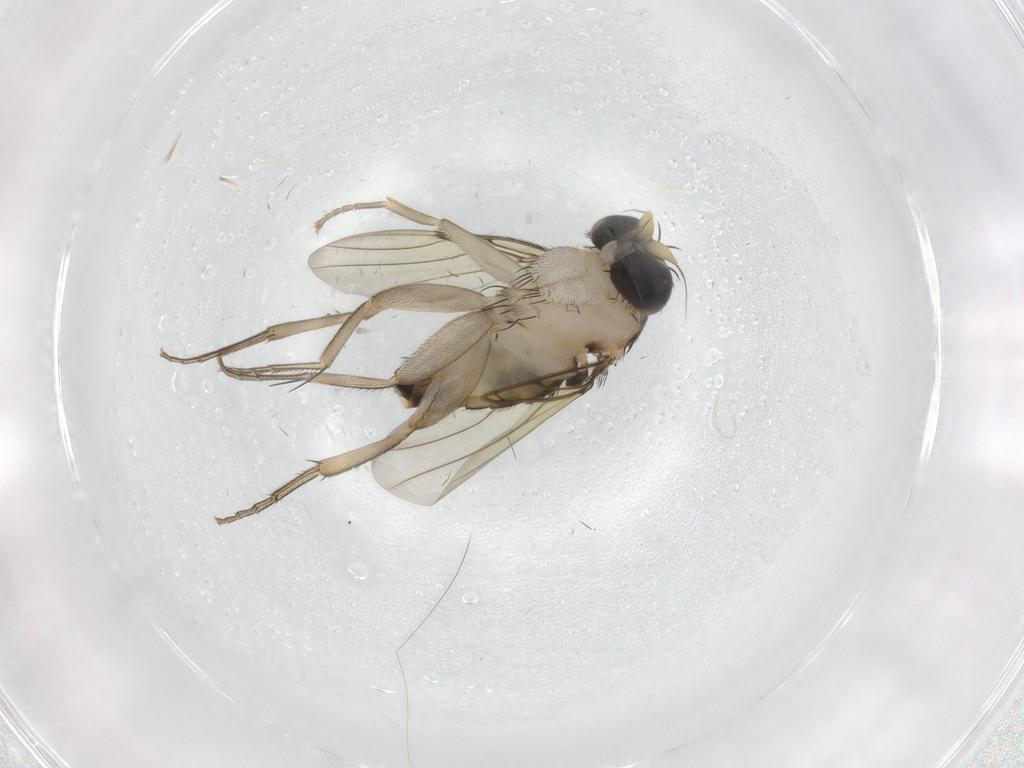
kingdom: Animalia
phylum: Arthropoda
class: Insecta
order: Diptera
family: Phoridae
